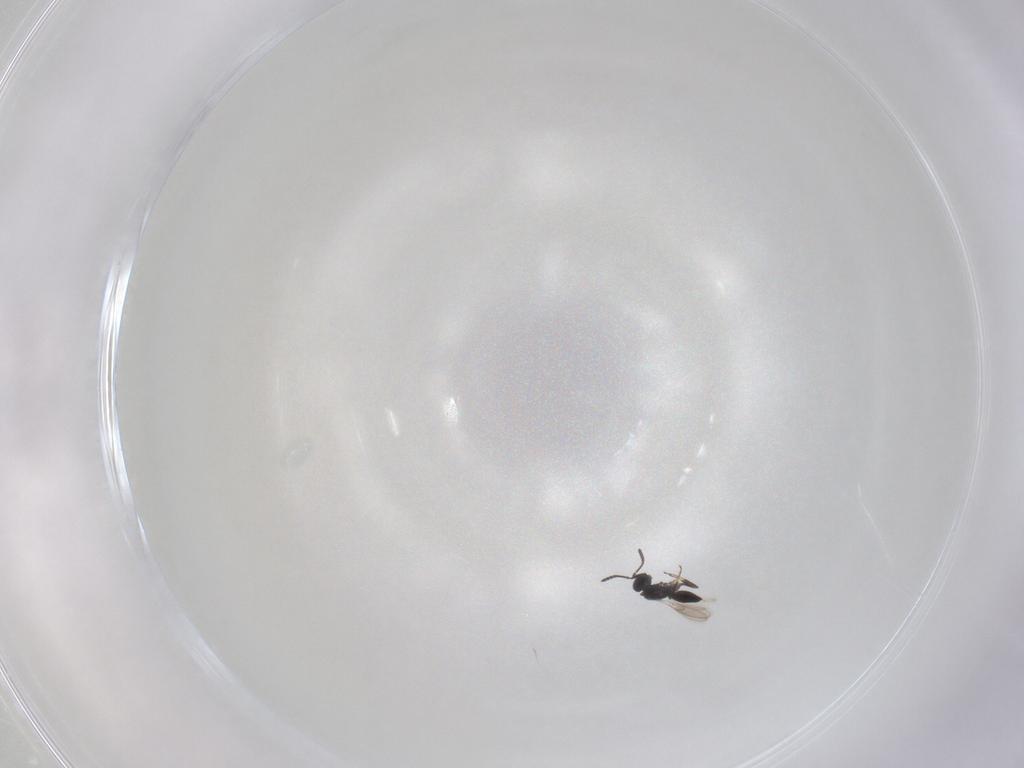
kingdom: Animalia
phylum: Arthropoda
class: Insecta
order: Hymenoptera
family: Scelionidae
